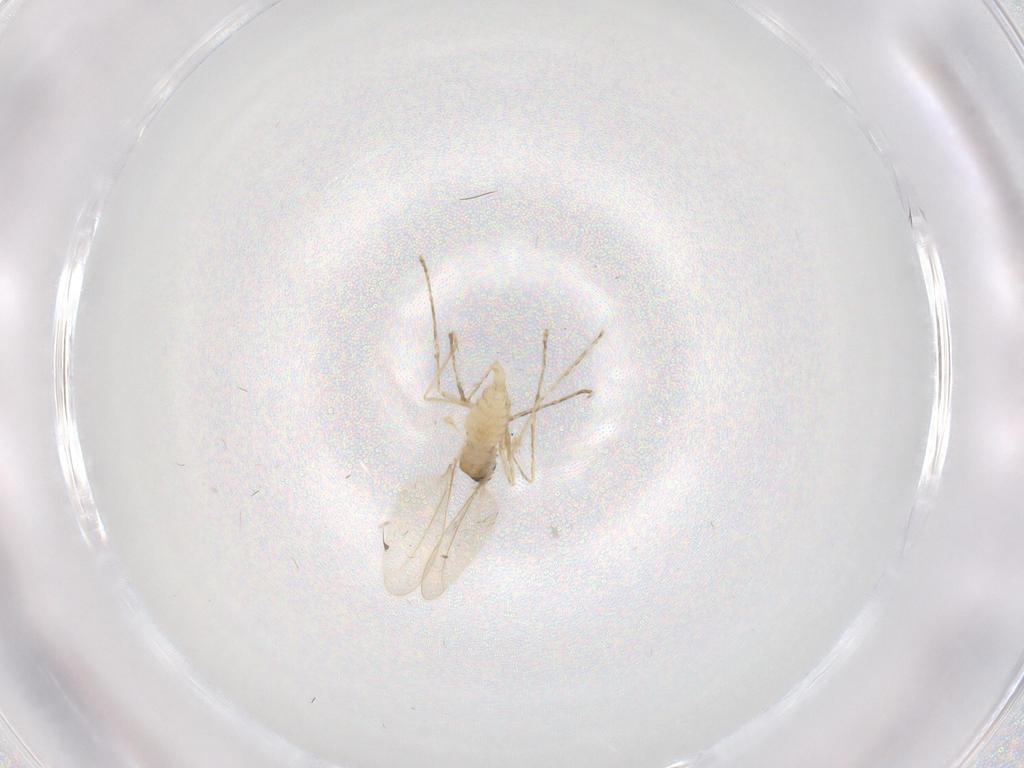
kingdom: Animalia
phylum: Arthropoda
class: Insecta
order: Diptera
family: Cecidomyiidae
